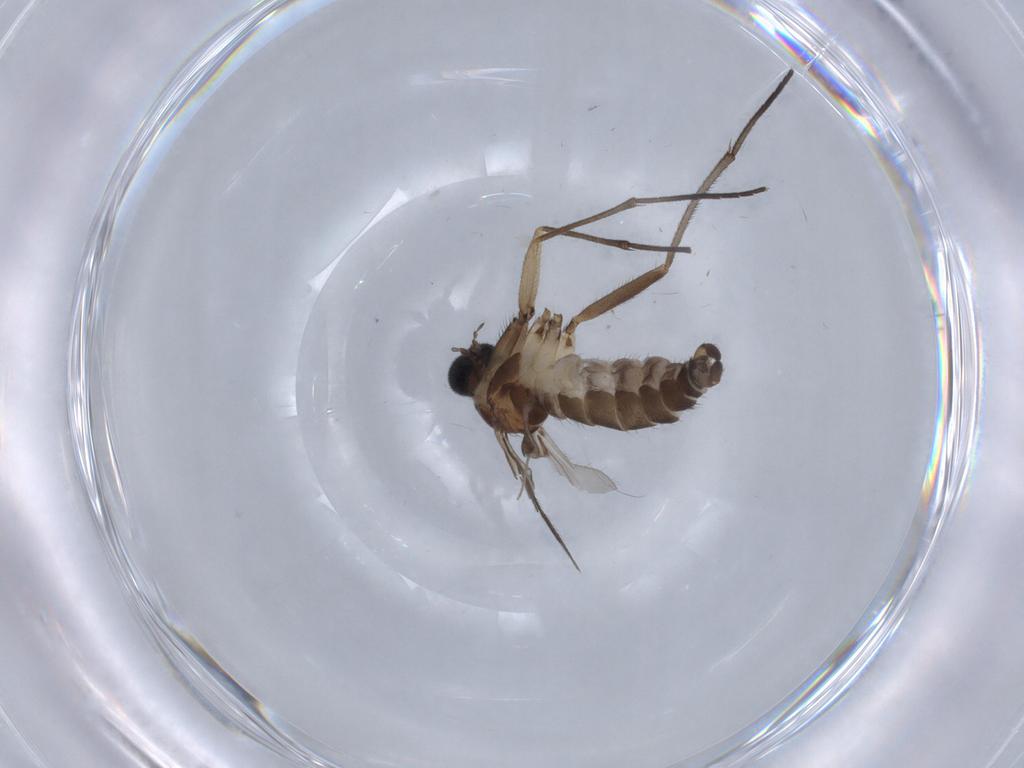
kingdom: Animalia
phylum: Arthropoda
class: Insecta
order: Diptera
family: Sciaridae
